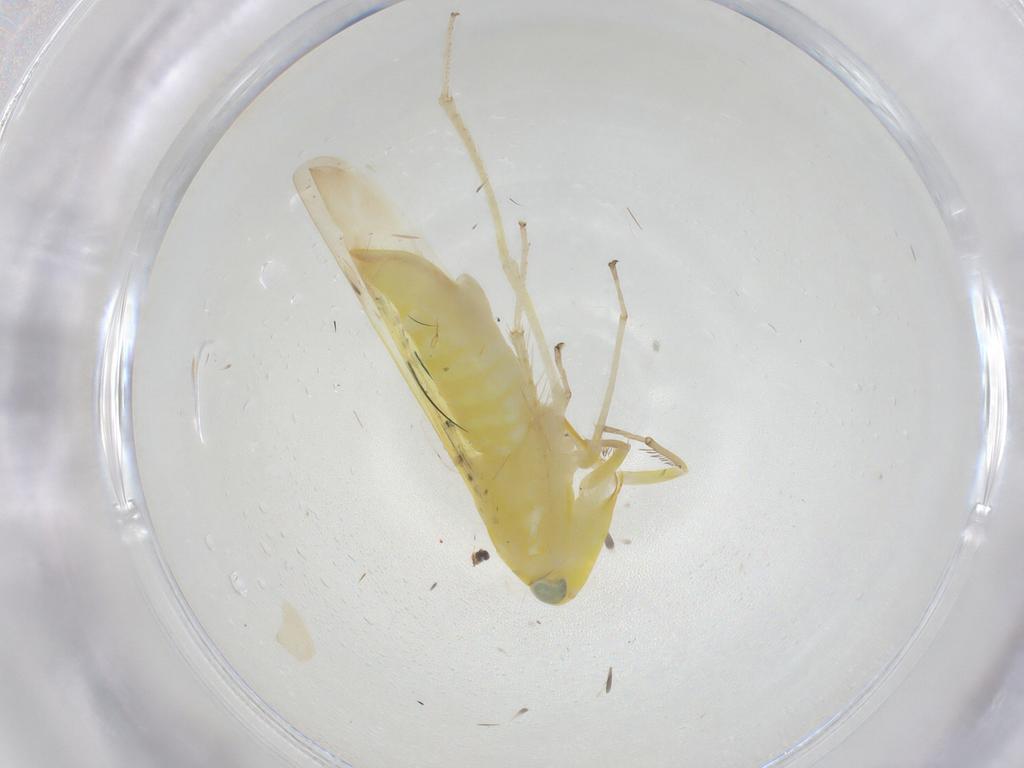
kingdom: Animalia
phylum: Arthropoda
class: Insecta
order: Hemiptera
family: Cicadellidae
